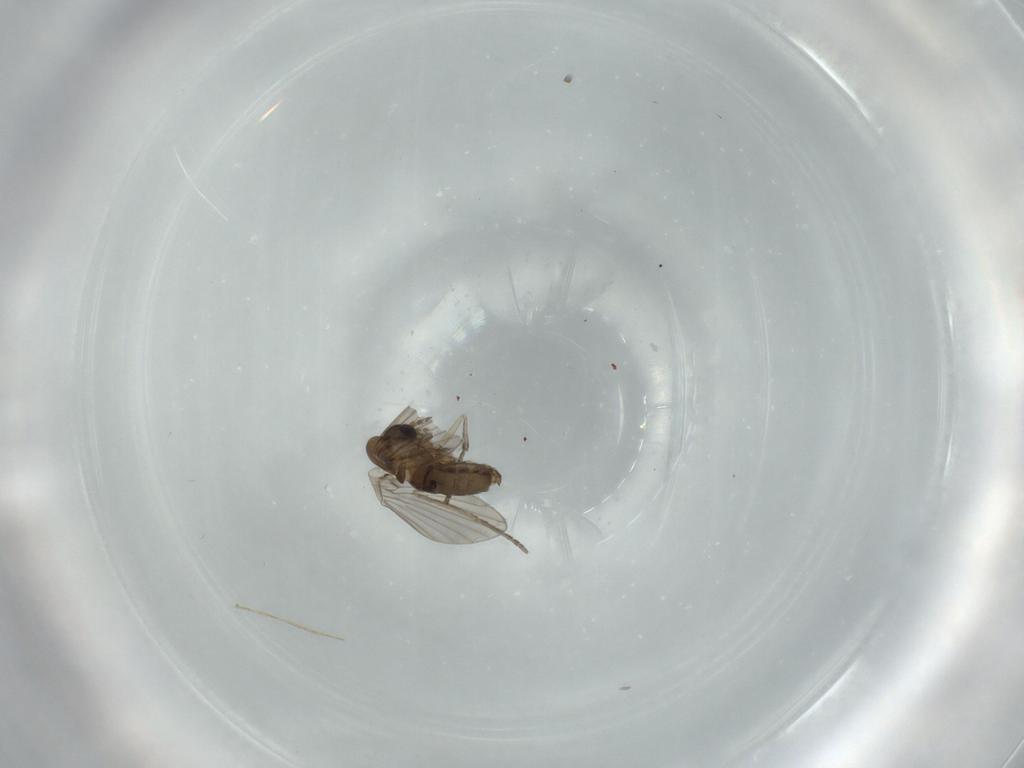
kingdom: Animalia
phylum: Arthropoda
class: Insecta
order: Diptera
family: Psychodidae
